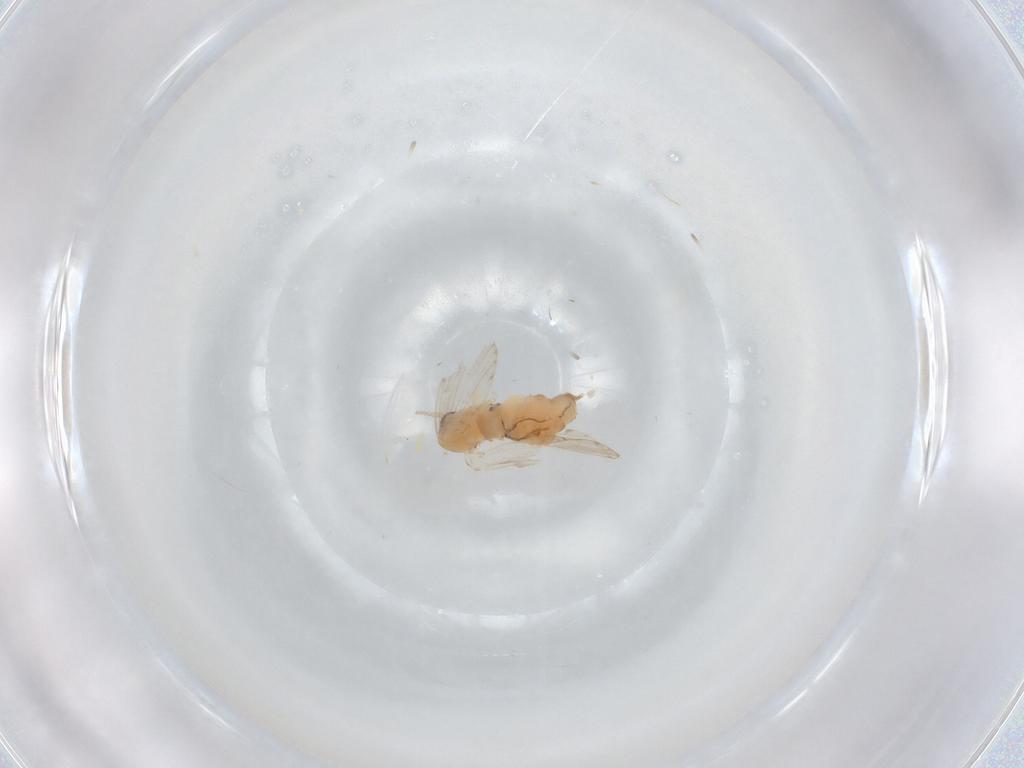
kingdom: Animalia
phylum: Arthropoda
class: Insecta
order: Diptera
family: Psychodidae
